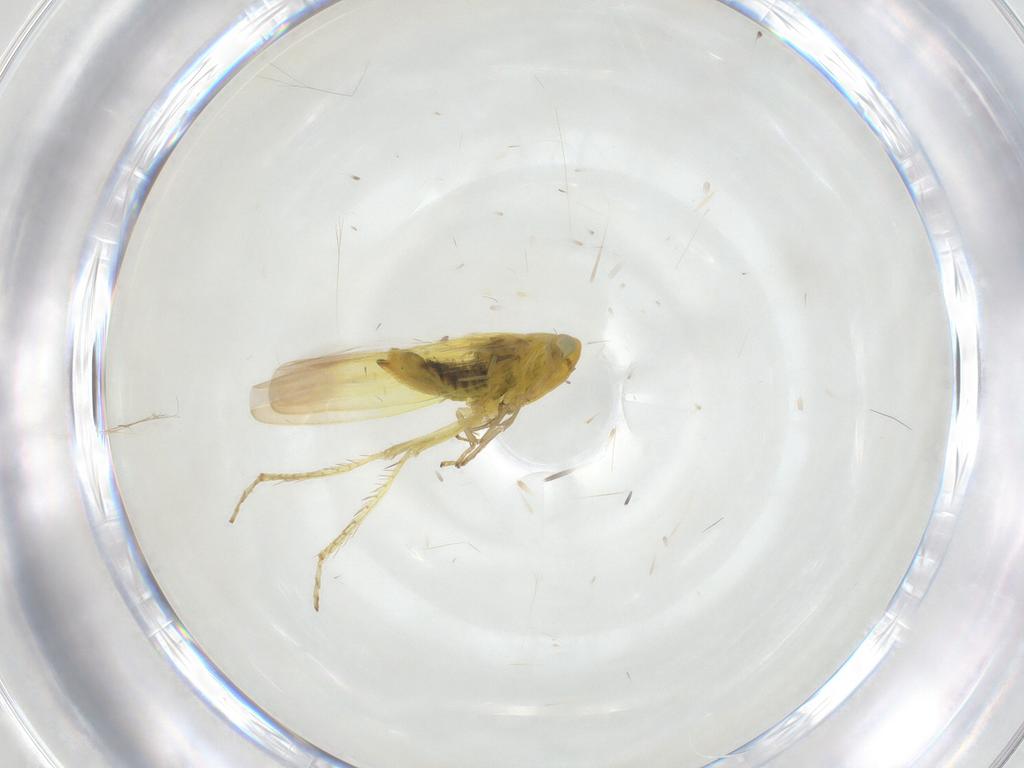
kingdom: Animalia
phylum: Arthropoda
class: Insecta
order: Hemiptera
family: Cicadellidae
